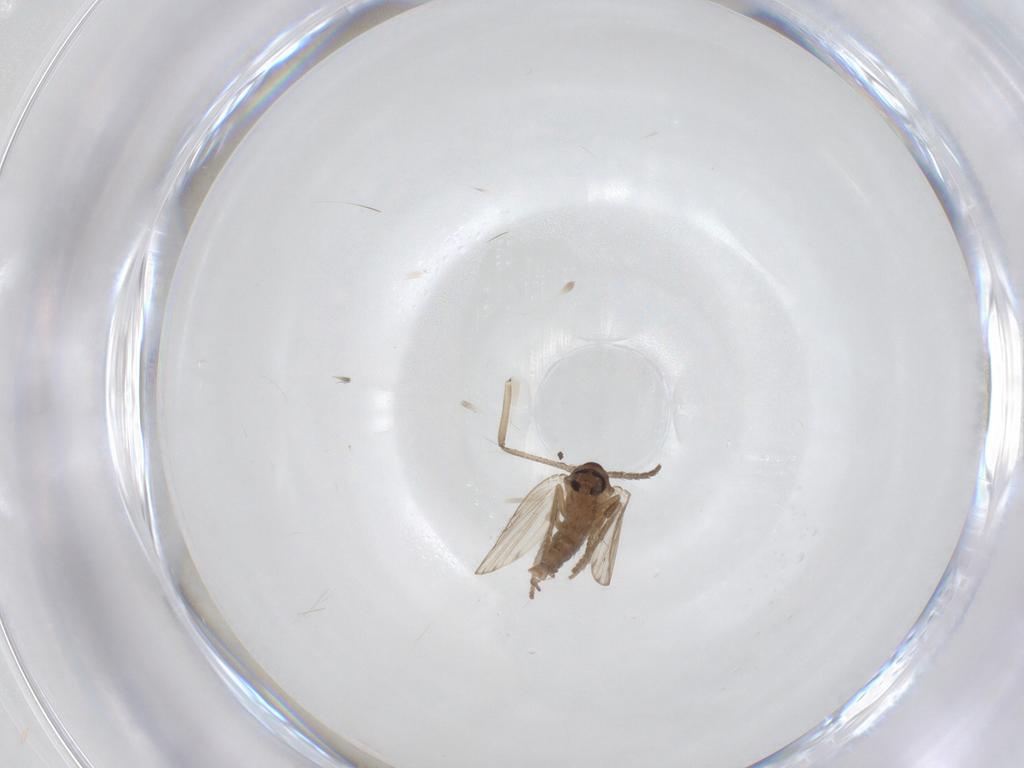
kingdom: Animalia
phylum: Arthropoda
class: Insecta
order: Diptera
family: Psychodidae
